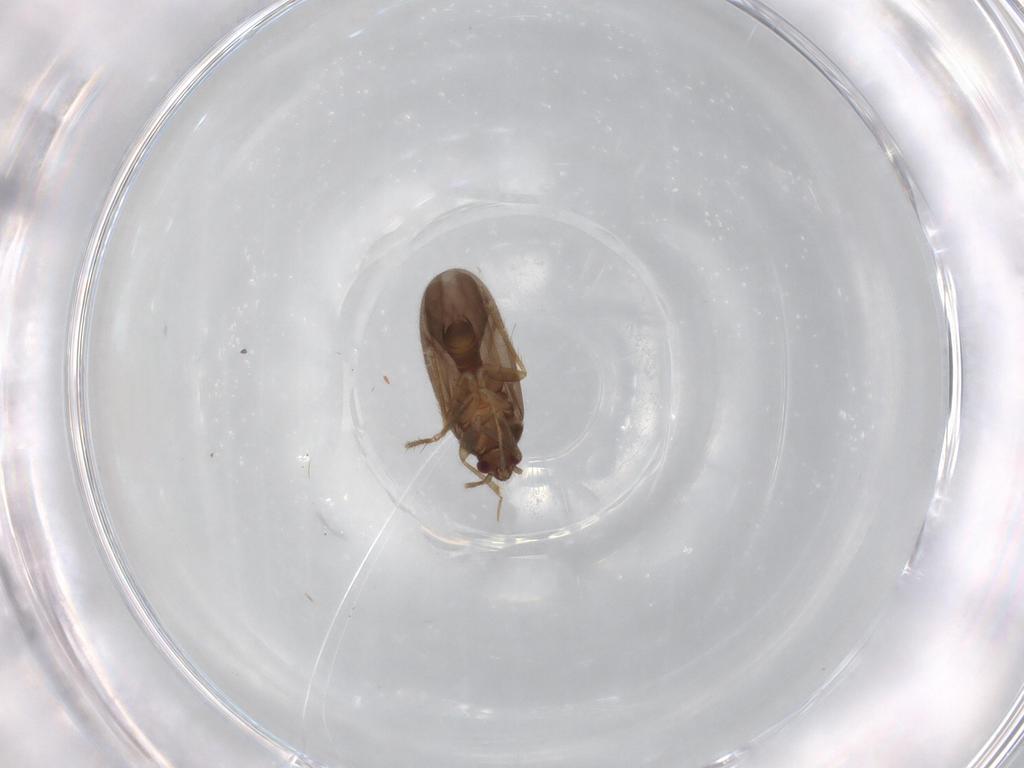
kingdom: Animalia
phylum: Arthropoda
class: Insecta
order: Hemiptera
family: Ceratocombidae
